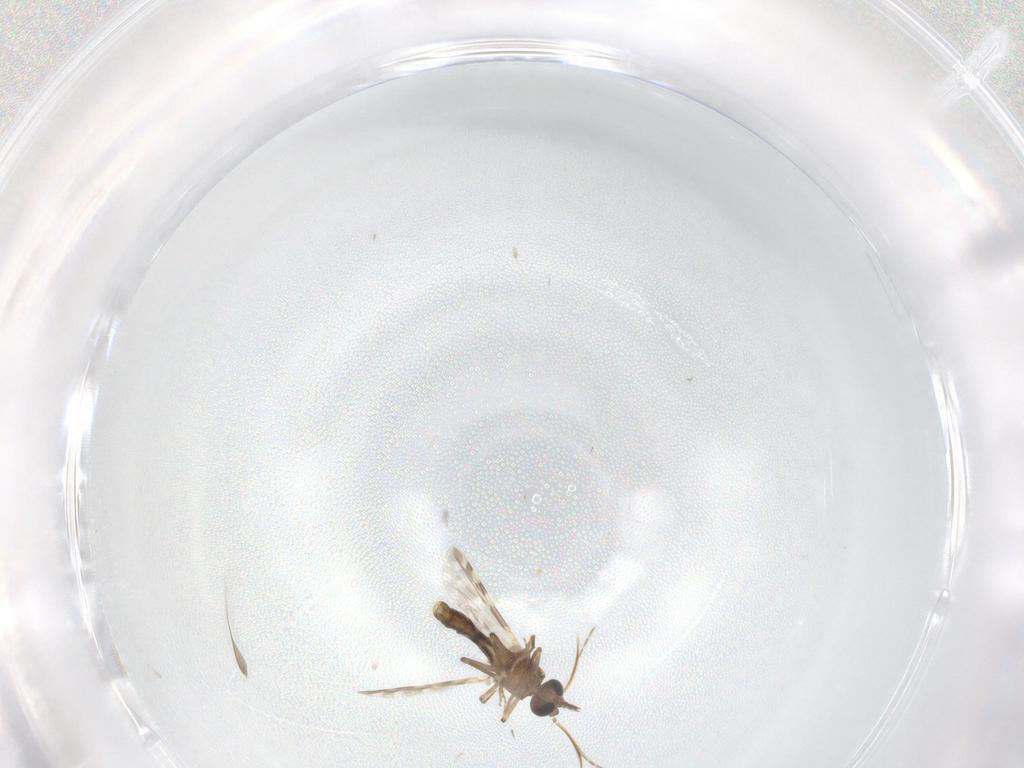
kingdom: Animalia
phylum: Arthropoda
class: Insecta
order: Diptera
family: Ceratopogonidae
